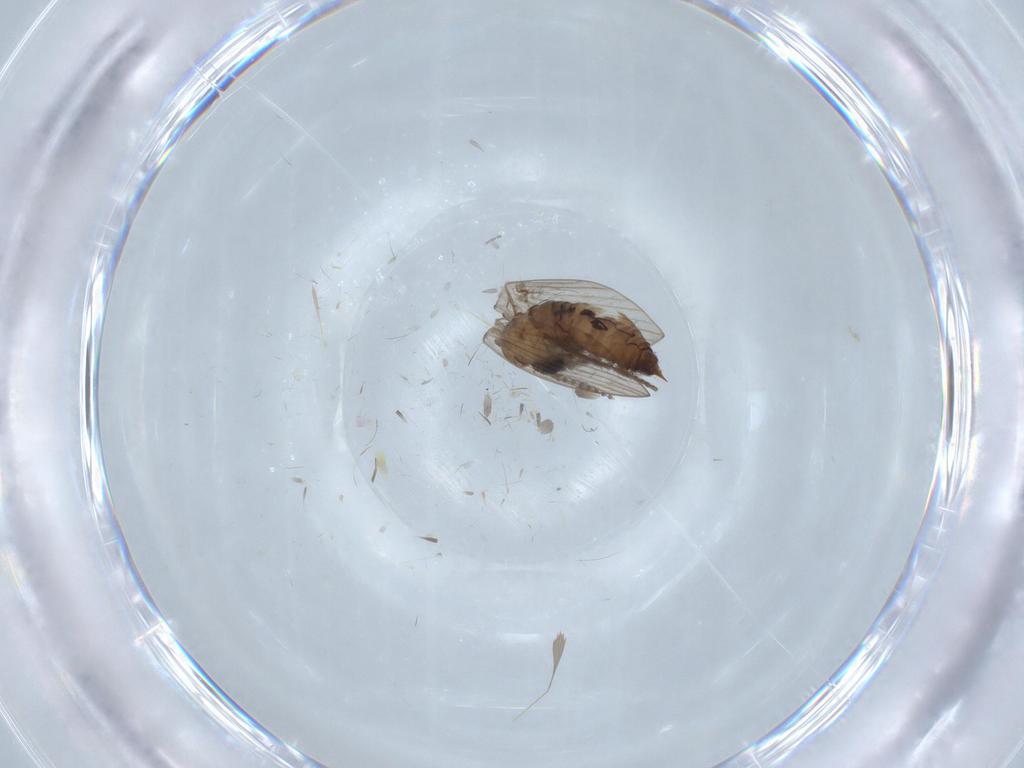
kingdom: Animalia
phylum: Arthropoda
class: Insecta
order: Diptera
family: Psychodidae
